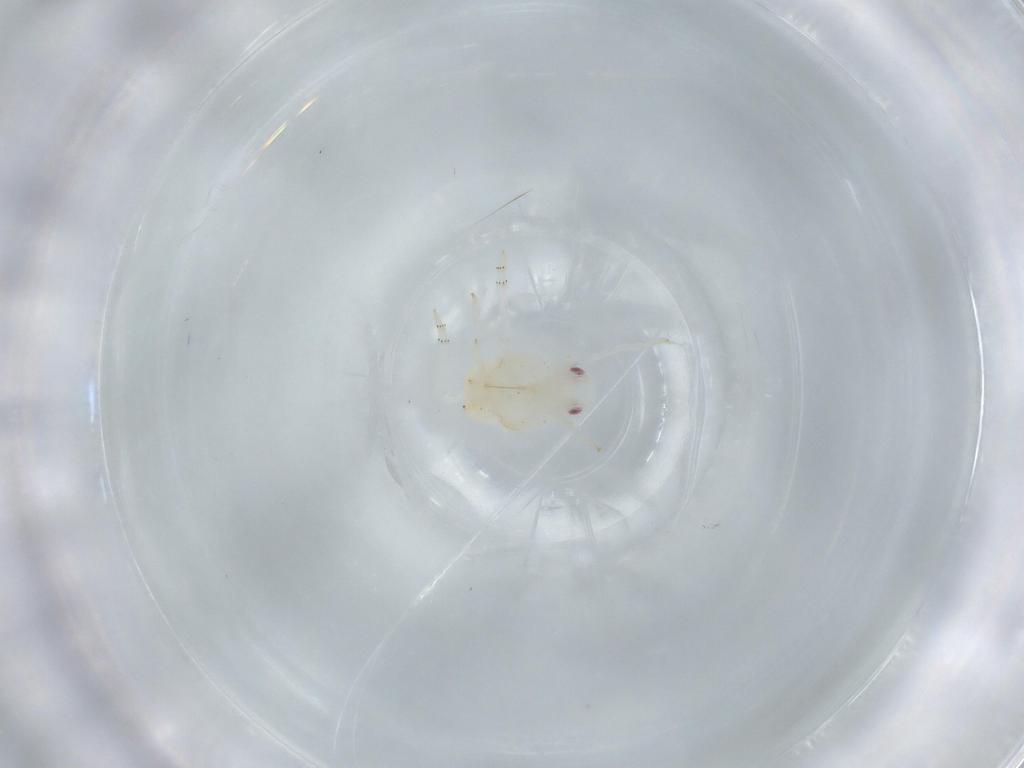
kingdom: Animalia
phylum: Arthropoda
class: Insecta
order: Hemiptera
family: Flatidae
